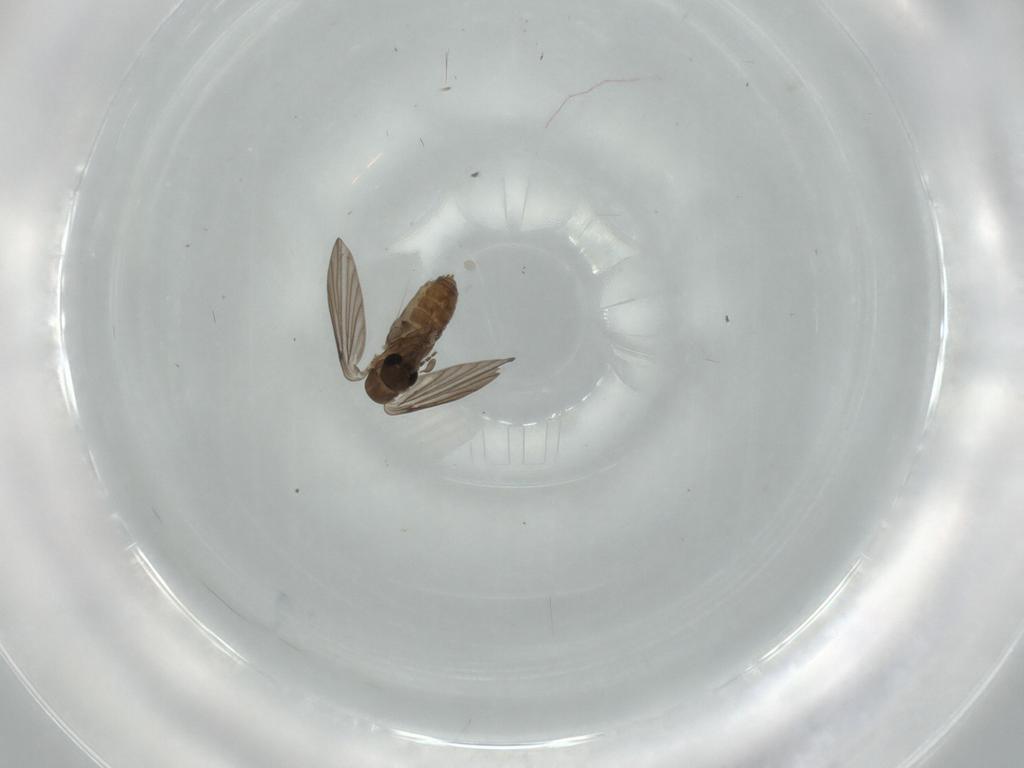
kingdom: Animalia
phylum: Arthropoda
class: Insecta
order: Diptera
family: Psychodidae
